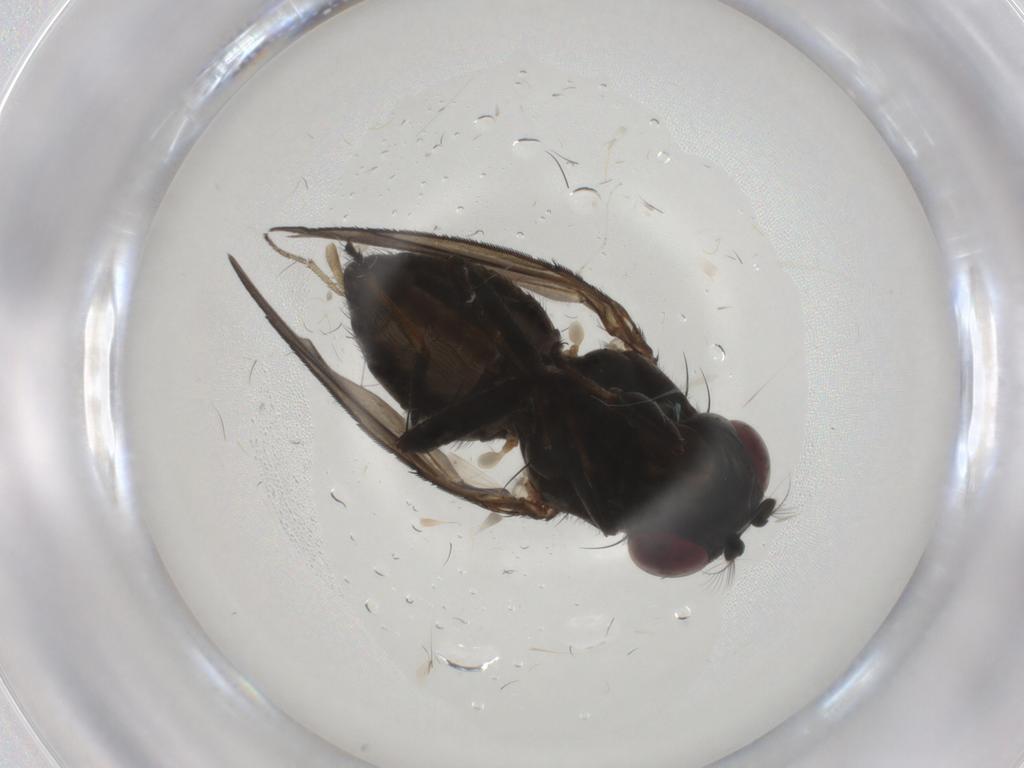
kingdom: Animalia
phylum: Arthropoda
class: Insecta
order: Diptera
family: Ephydridae
